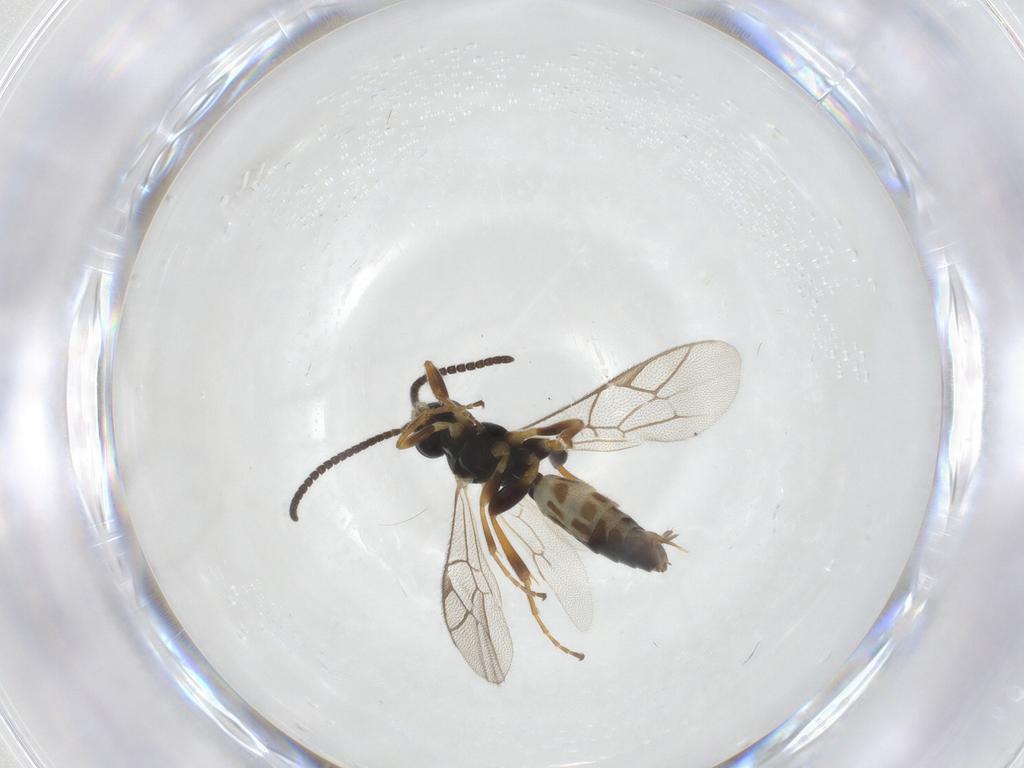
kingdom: Animalia
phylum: Arthropoda
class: Insecta
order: Hymenoptera
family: Ichneumonidae
